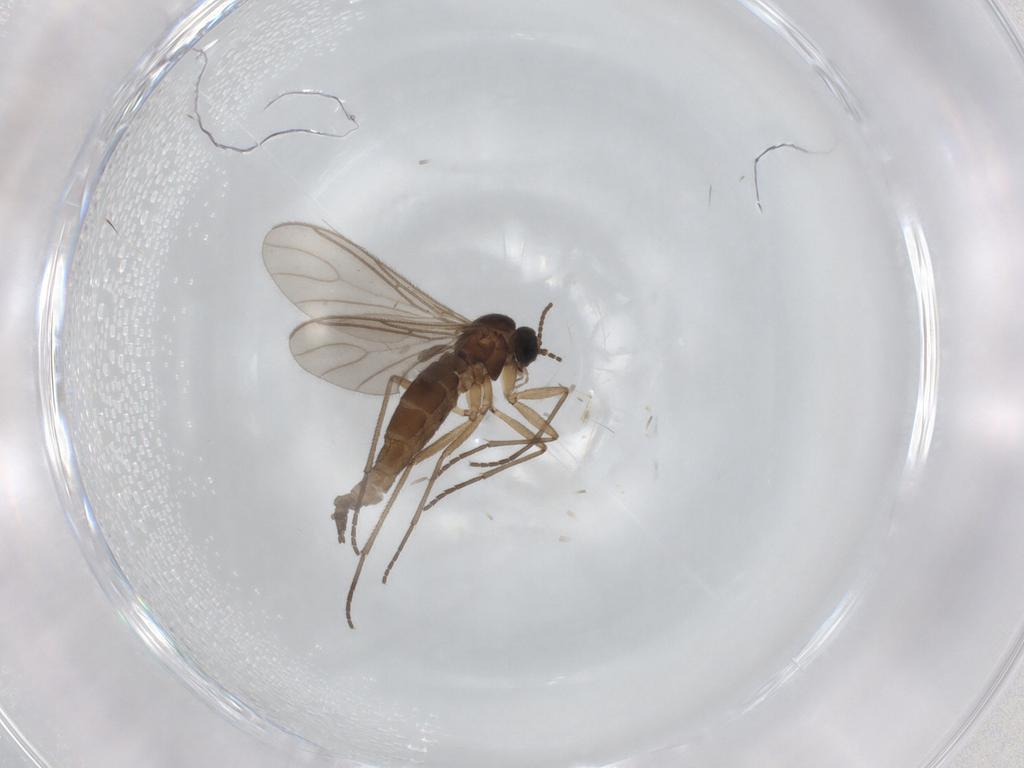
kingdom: Animalia
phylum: Arthropoda
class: Insecta
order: Diptera
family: Sciaridae
